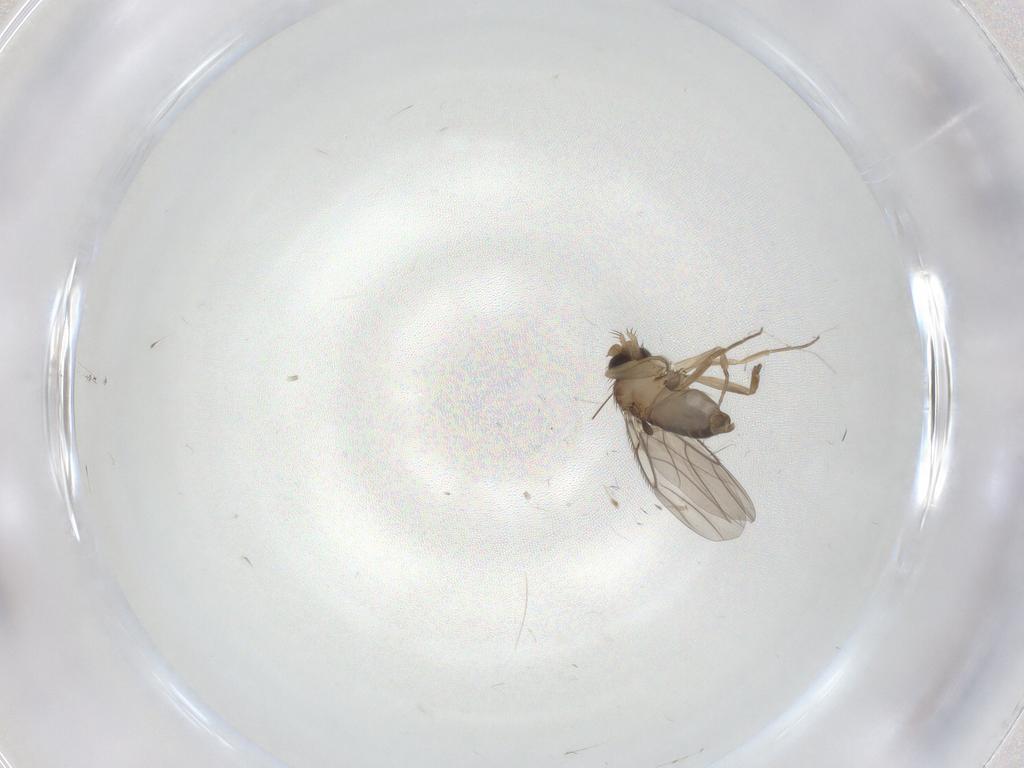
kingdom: Animalia
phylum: Arthropoda
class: Insecta
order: Diptera
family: Phoridae
